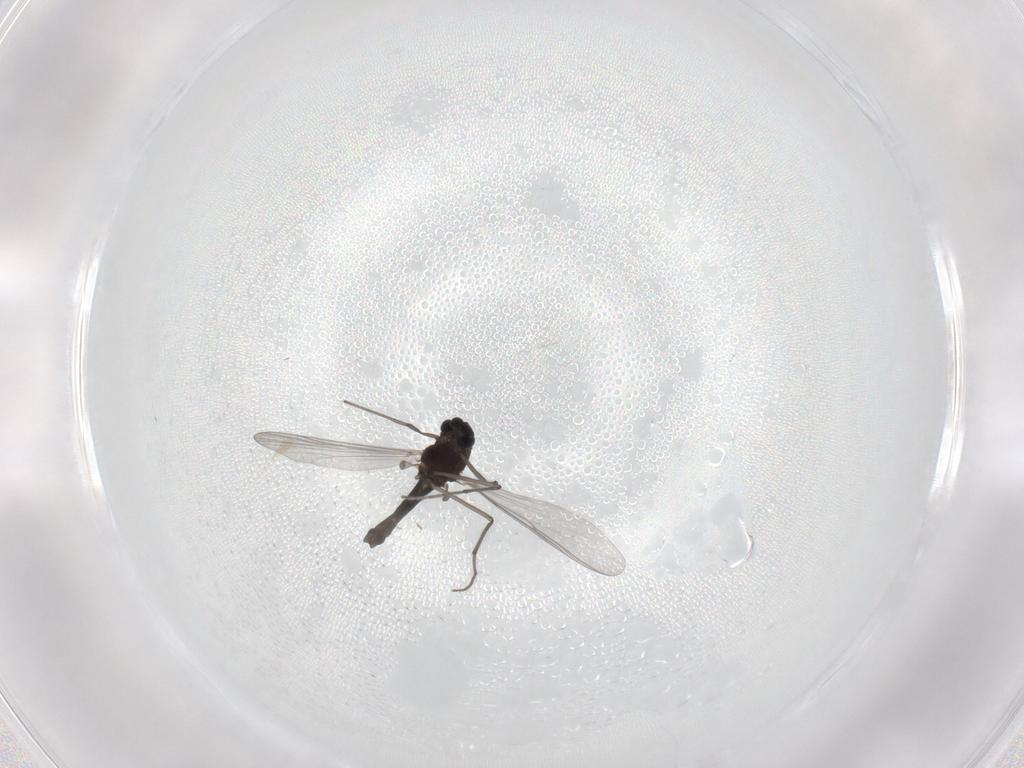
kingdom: Animalia
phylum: Arthropoda
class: Insecta
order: Diptera
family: Chironomidae
